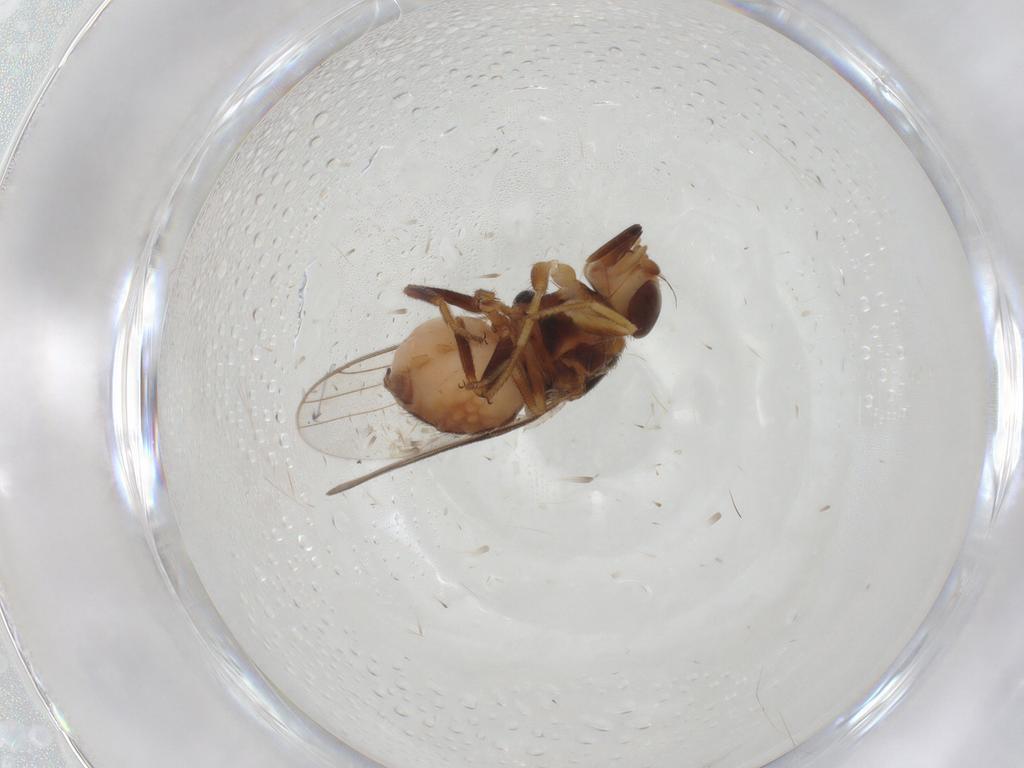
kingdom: Animalia
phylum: Arthropoda
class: Insecta
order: Diptera
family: Chloropidae
